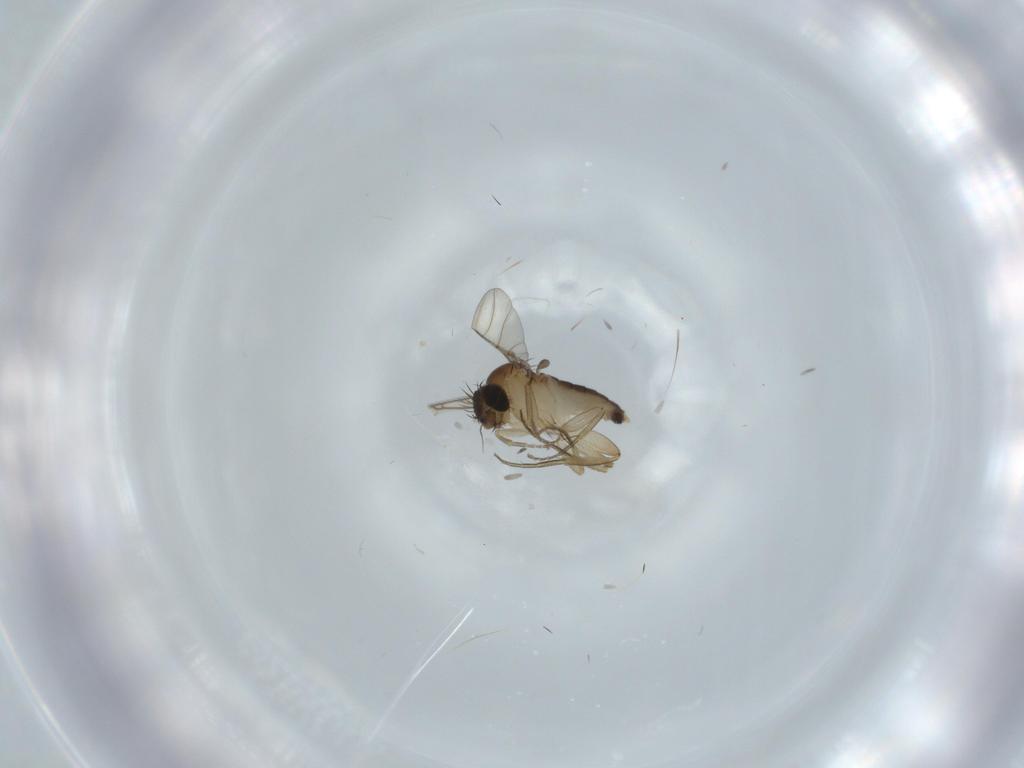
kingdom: Animalia
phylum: Arthropoda
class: Insecta
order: Diptera
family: Phoridae
